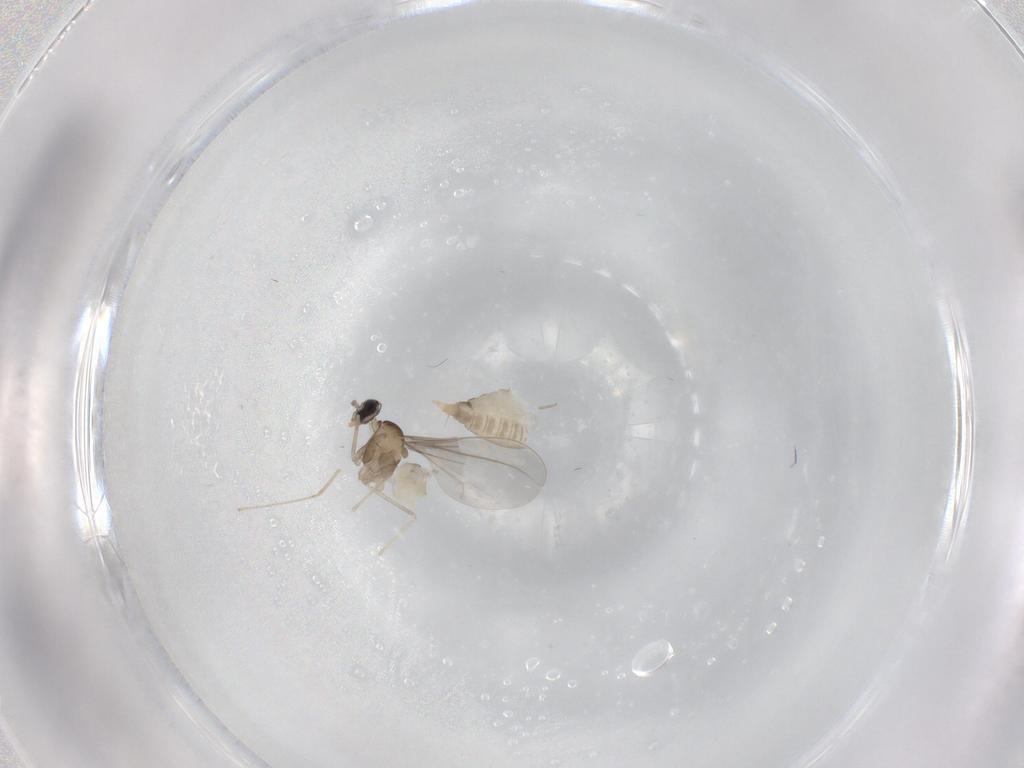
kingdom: Animalia
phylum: Arthropoda
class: Insecta
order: Diptera
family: Cecidomyiidae
